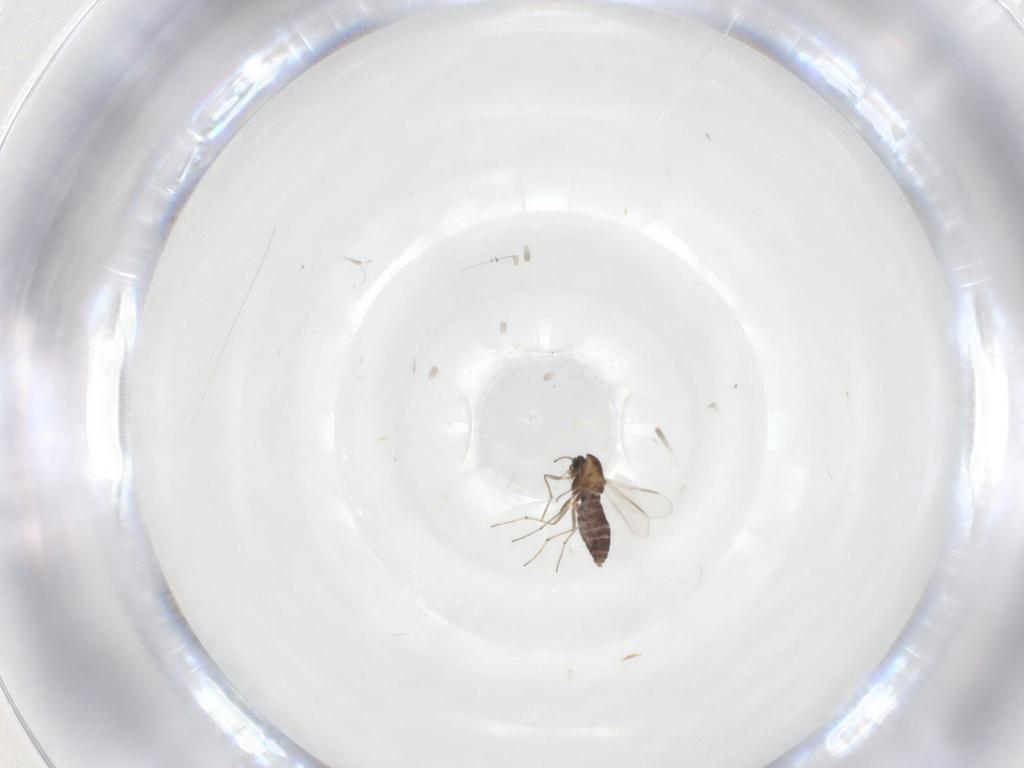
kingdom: Animalia
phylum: Arthropoda
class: Insecta
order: Diptera
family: Chironomidae
